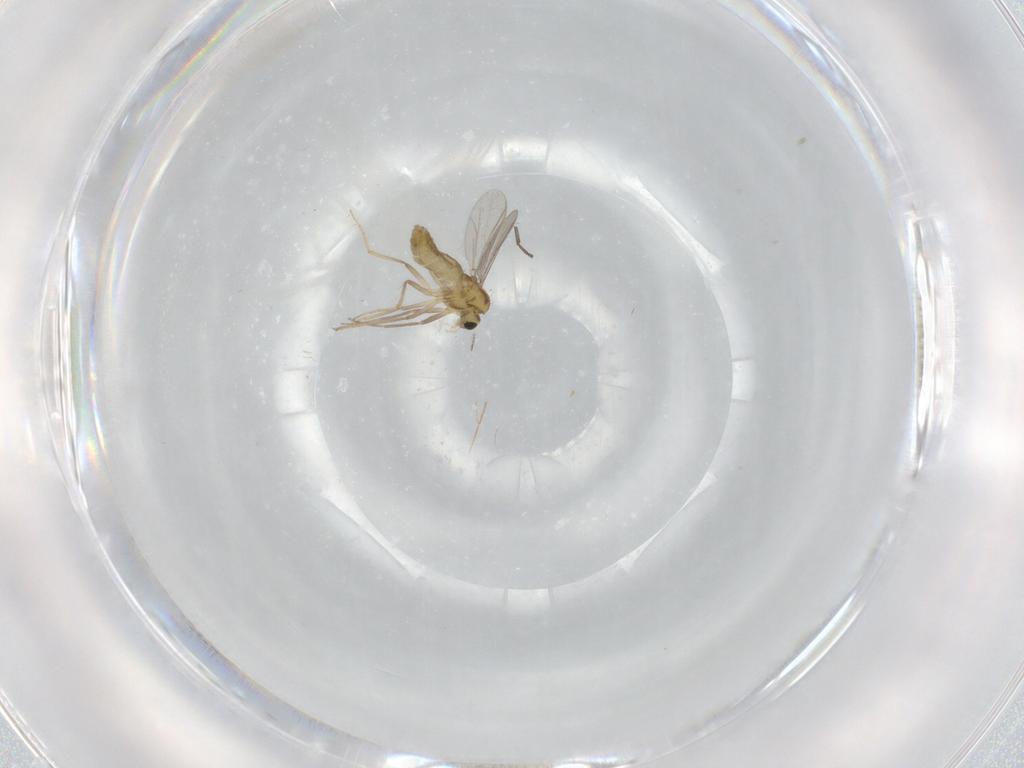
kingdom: Animalia
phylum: Arthropoda
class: Insecta
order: Diptera
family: Chironomidae
